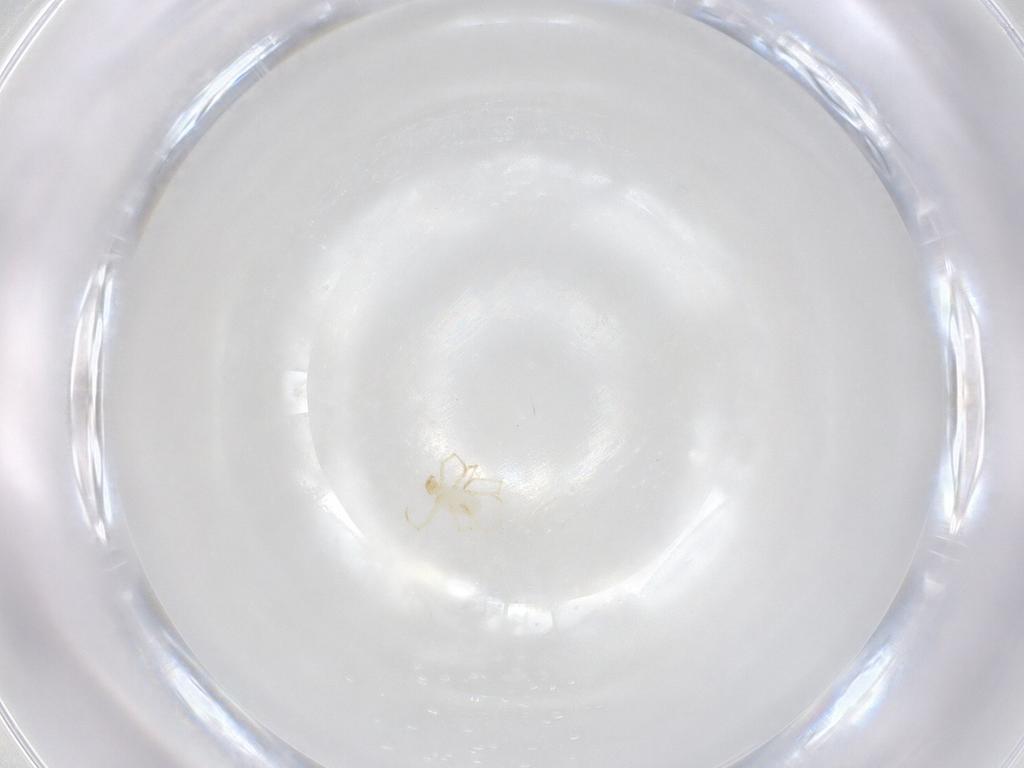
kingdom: Animalia
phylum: Arthropoda
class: Arachnida
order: Trombidiformes
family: Erythraeidae
